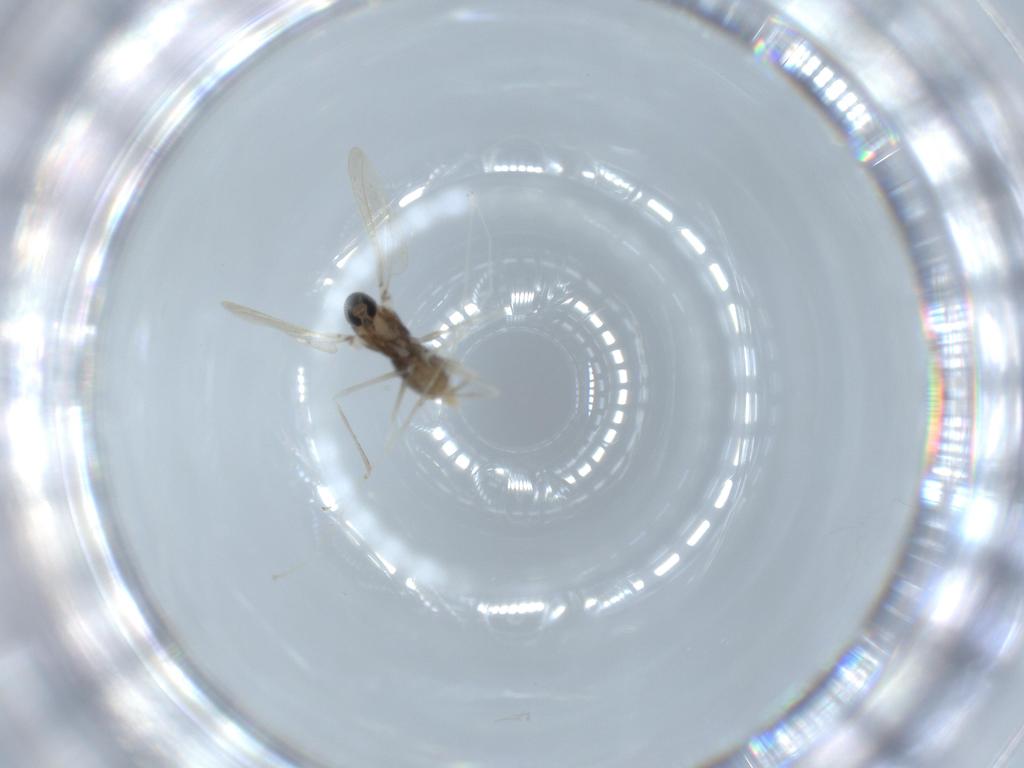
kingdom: Animalia
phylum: Arthropoda
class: Insecta
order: Diptera
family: Cecidomyiidae
